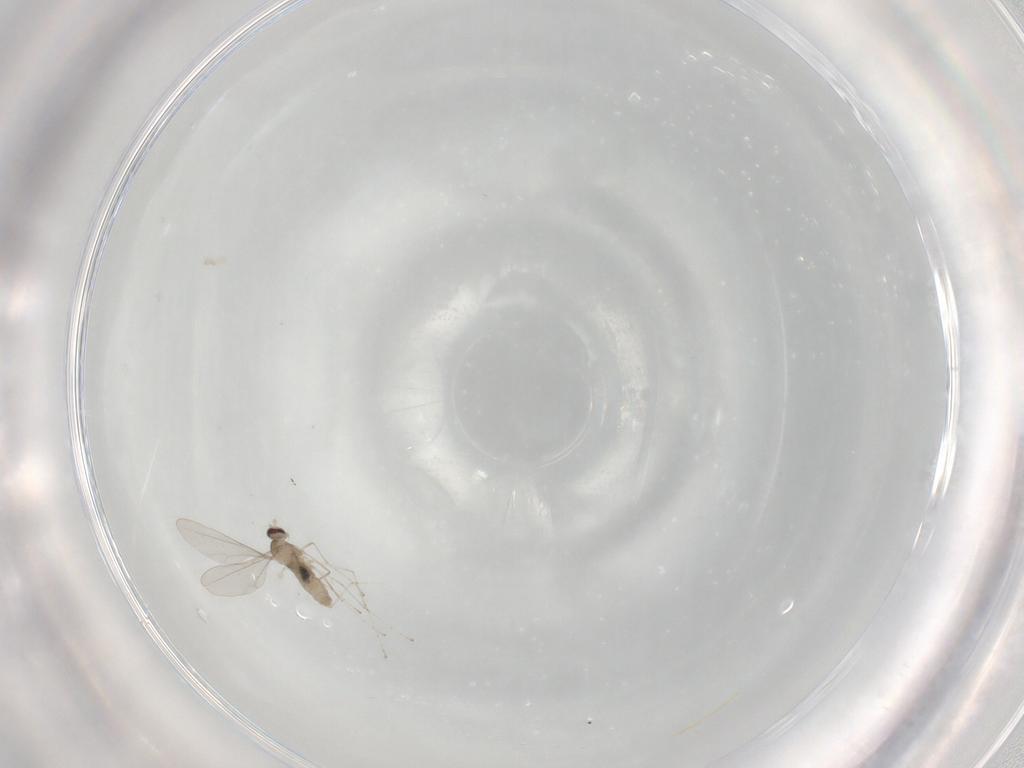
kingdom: Animalia
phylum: Arthropoda
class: Insecta
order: Diptera
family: Cecidomyiidae
